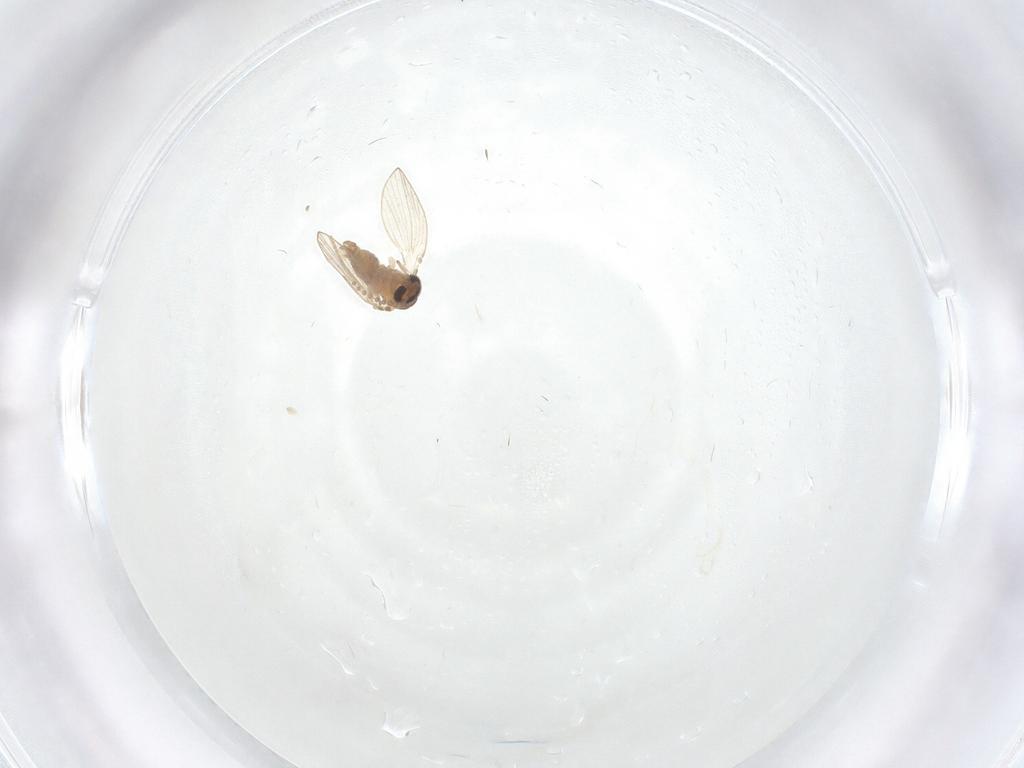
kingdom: Animalia
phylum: Arthropoda
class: Insecta
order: Diptera
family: Psychodidae
